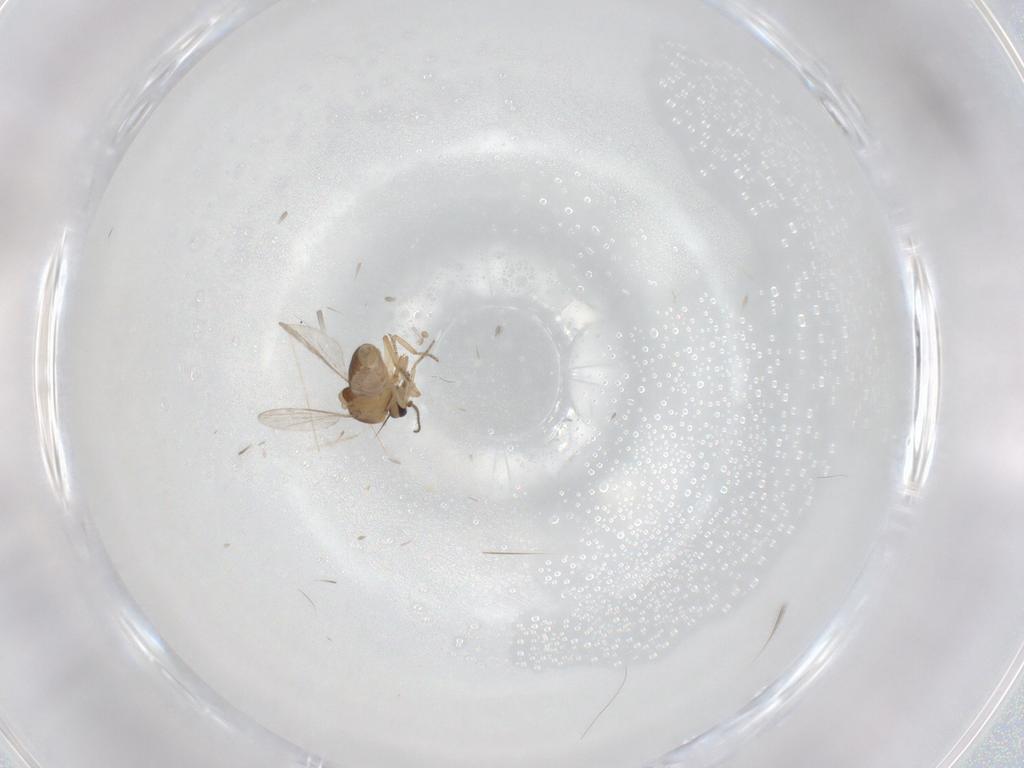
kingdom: Animalia
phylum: Arthropoda
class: Insecta
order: Diptera
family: Ceratopogonidae
